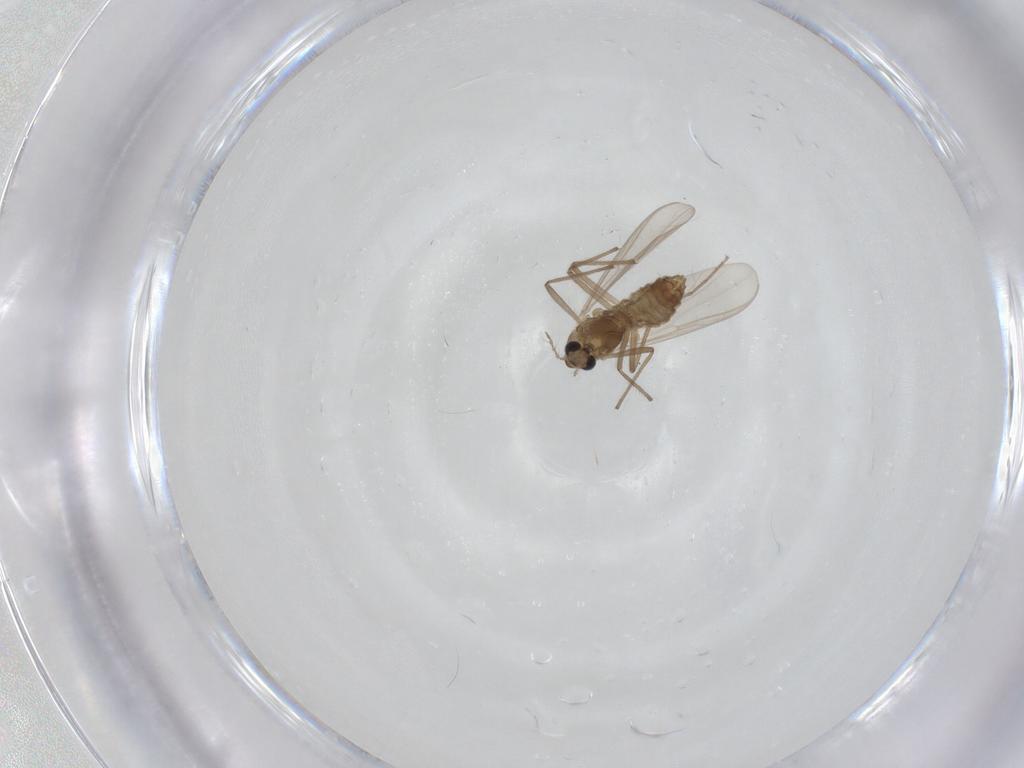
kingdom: Animalia
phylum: Arthropoda
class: Insecta
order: Diptera
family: Chironomidae
